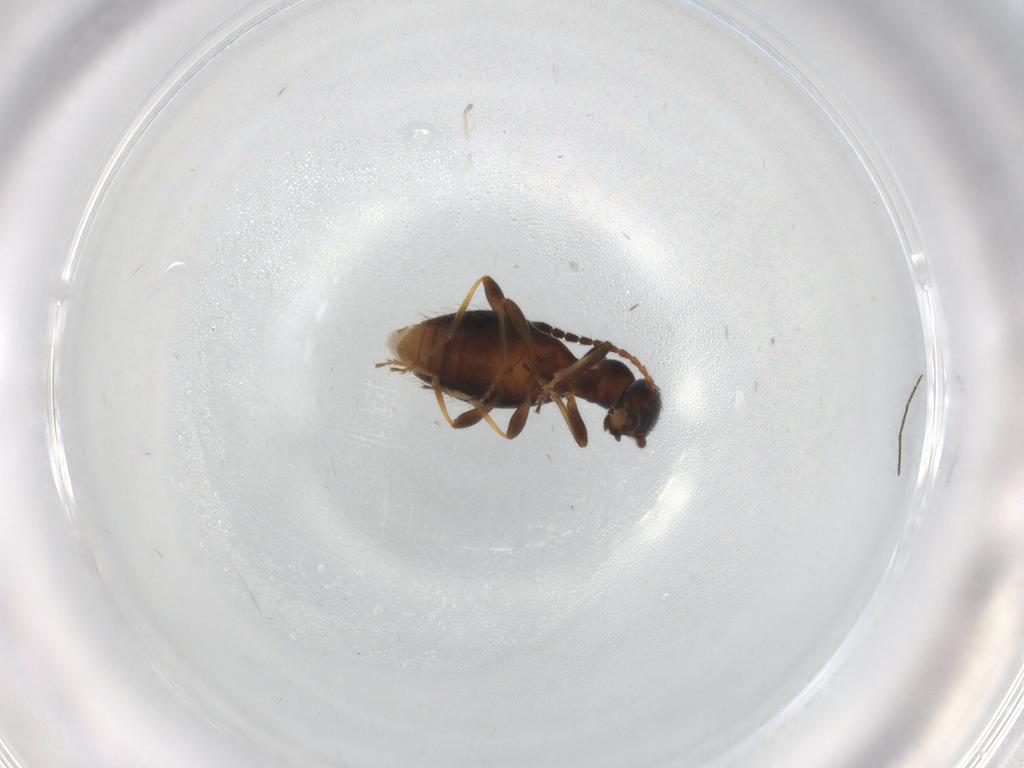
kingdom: Animalia
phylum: Arthropoda
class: Insecta
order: Coleoptera
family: Anthicidae
